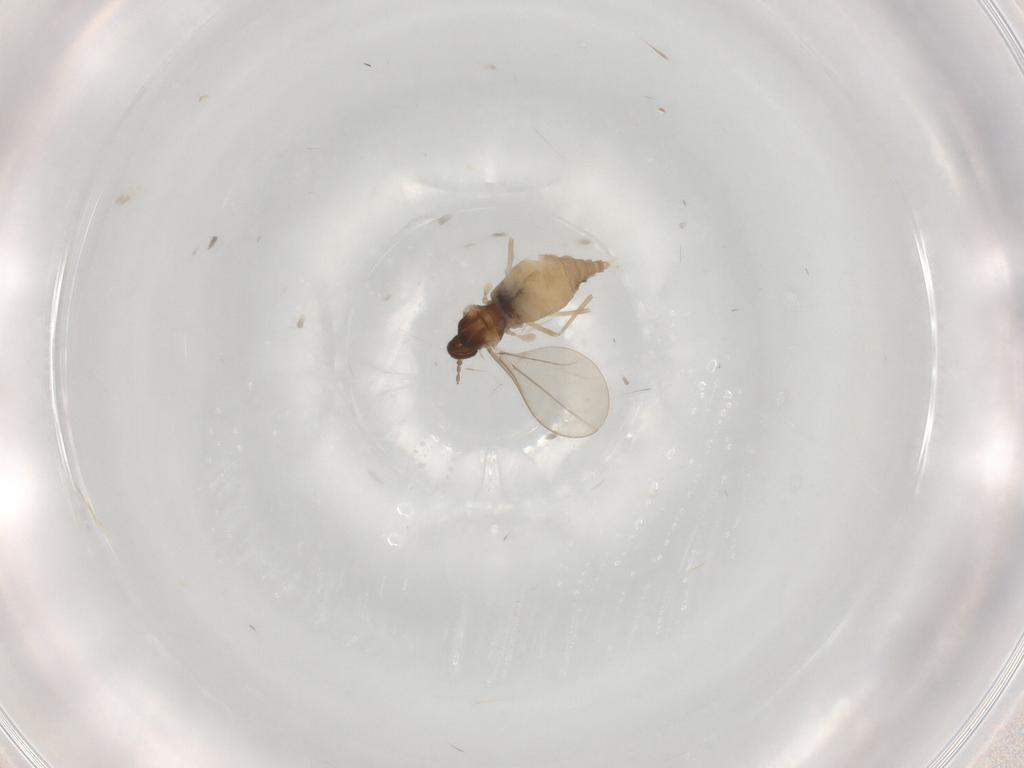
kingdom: Animalia
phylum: Arthropoda
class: Insecta
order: Diptera
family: Cecidomyiidae
